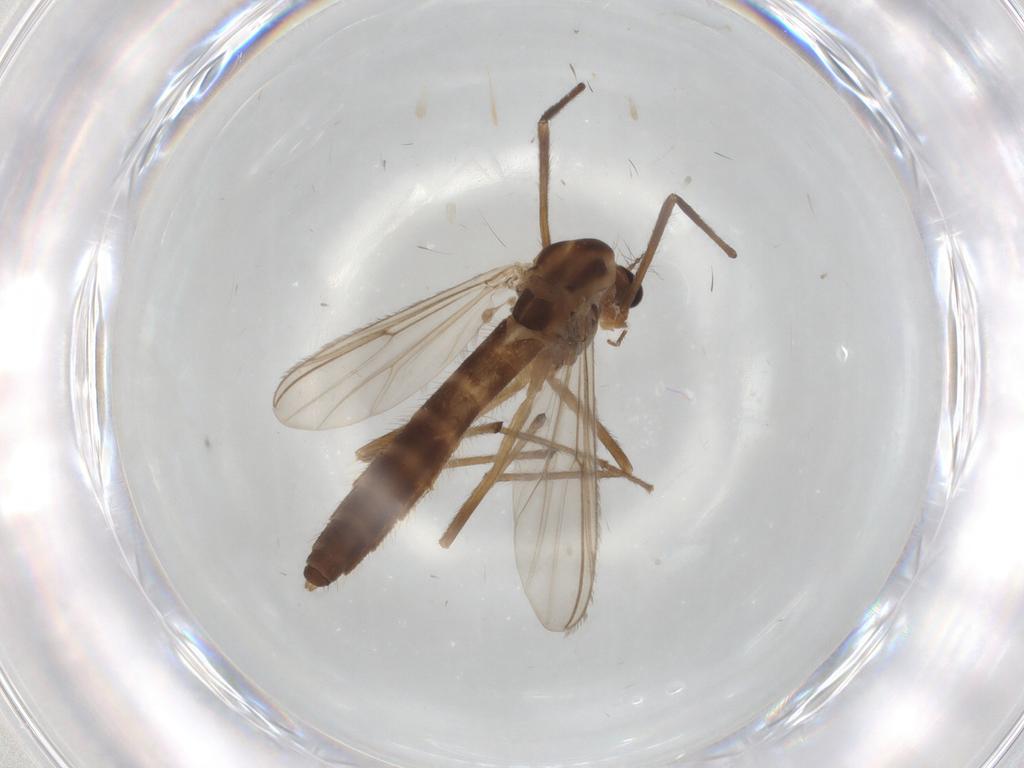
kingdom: Animalia
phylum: Arthropoda
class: Insecta
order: Diptera
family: Chironomidae
